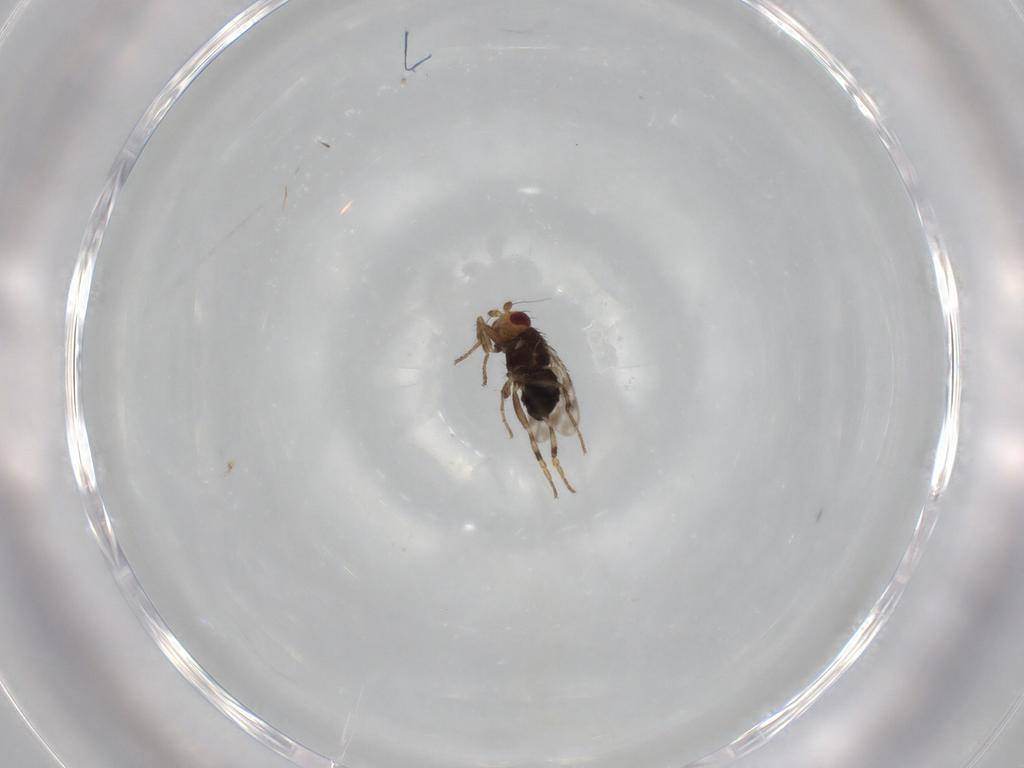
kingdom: Animalia
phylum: Arthropoda
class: Insecta
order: Diptera
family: Sphaeroceridae
